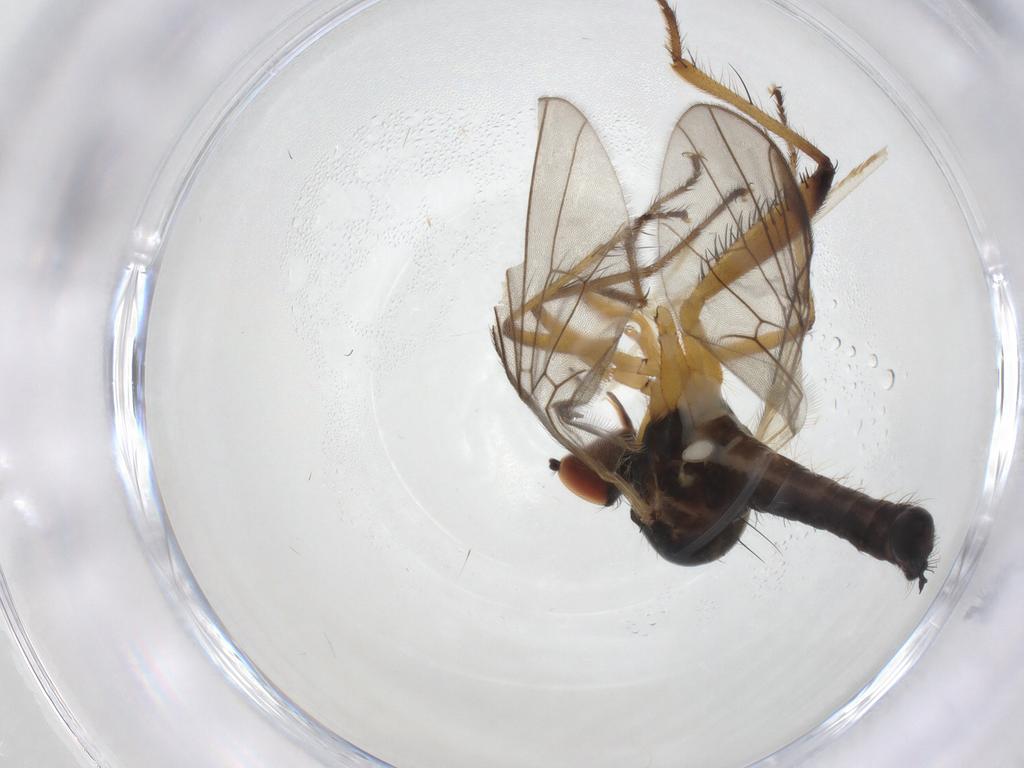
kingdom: Animalia
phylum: Arthropoda
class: Insecta
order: Diptera
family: Hybotidae
